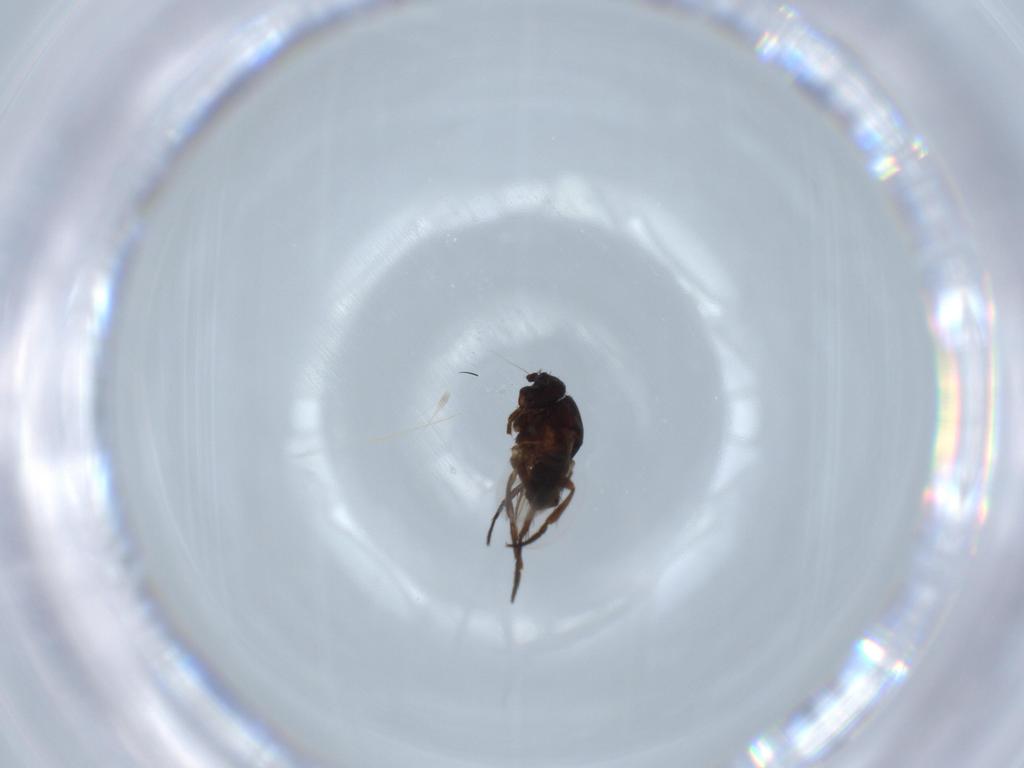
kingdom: Animalia
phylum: Arthropoda
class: Insecta
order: Diptera
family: Sphaeroceridae
